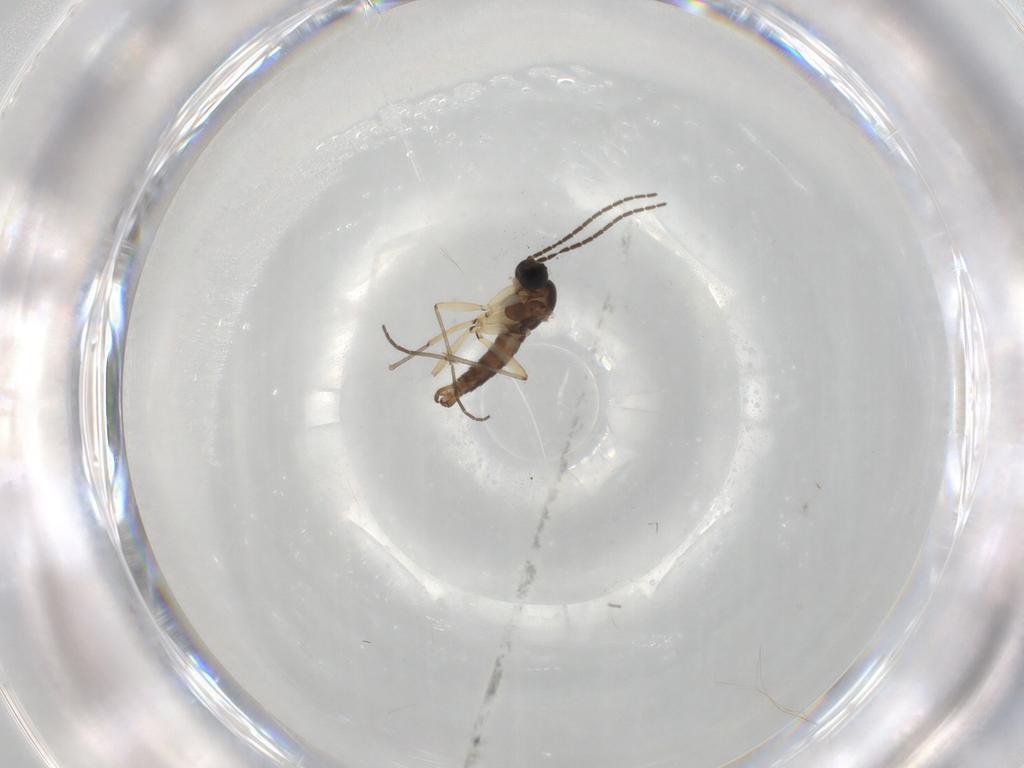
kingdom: Animalia
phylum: Arthropoda
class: Insecta
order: Diptera
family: Sciaridae
